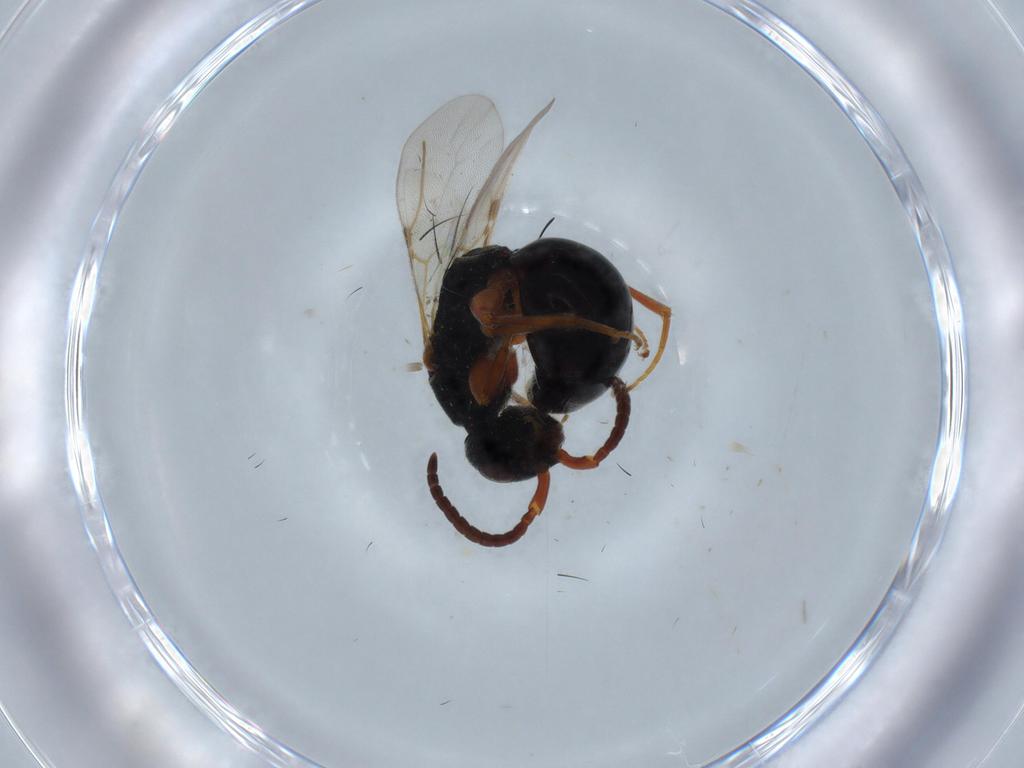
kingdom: Animalia
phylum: Arthropoda
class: Insecta
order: Hymenoptera
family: Bethylidae
